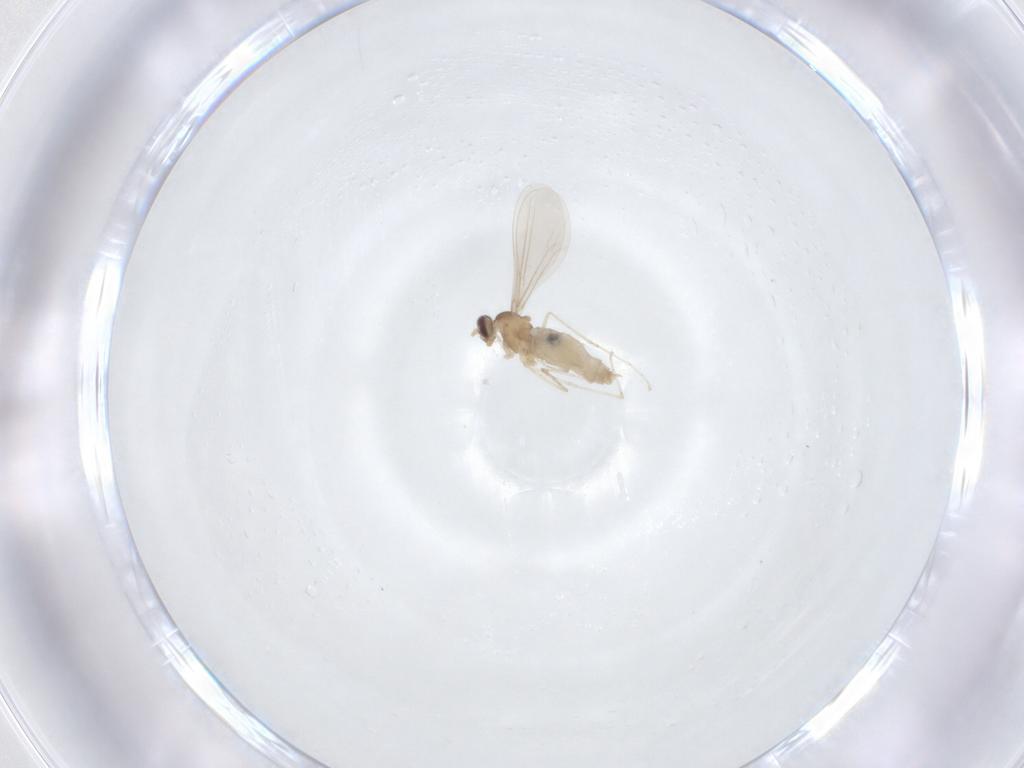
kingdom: Animalia
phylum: Arthropoda
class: Insecta
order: Diptera
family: Cecidomyiidae
